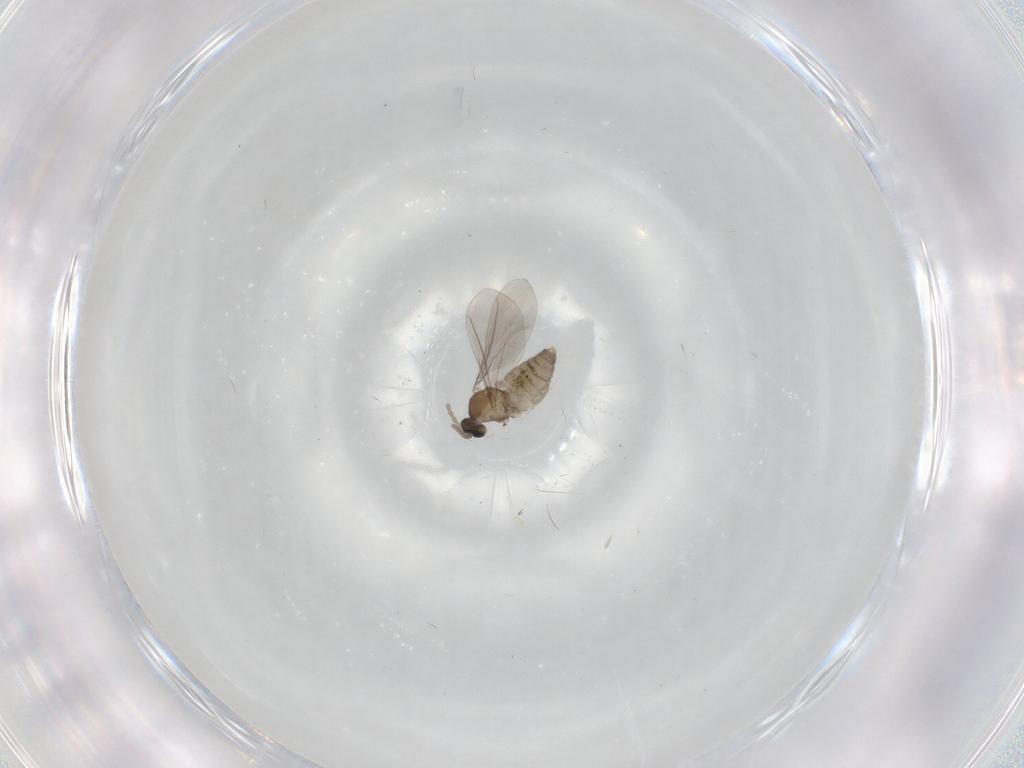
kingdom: Animalia
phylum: Arthropoda
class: Insecta
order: Diptera
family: Cecidomyiidae
